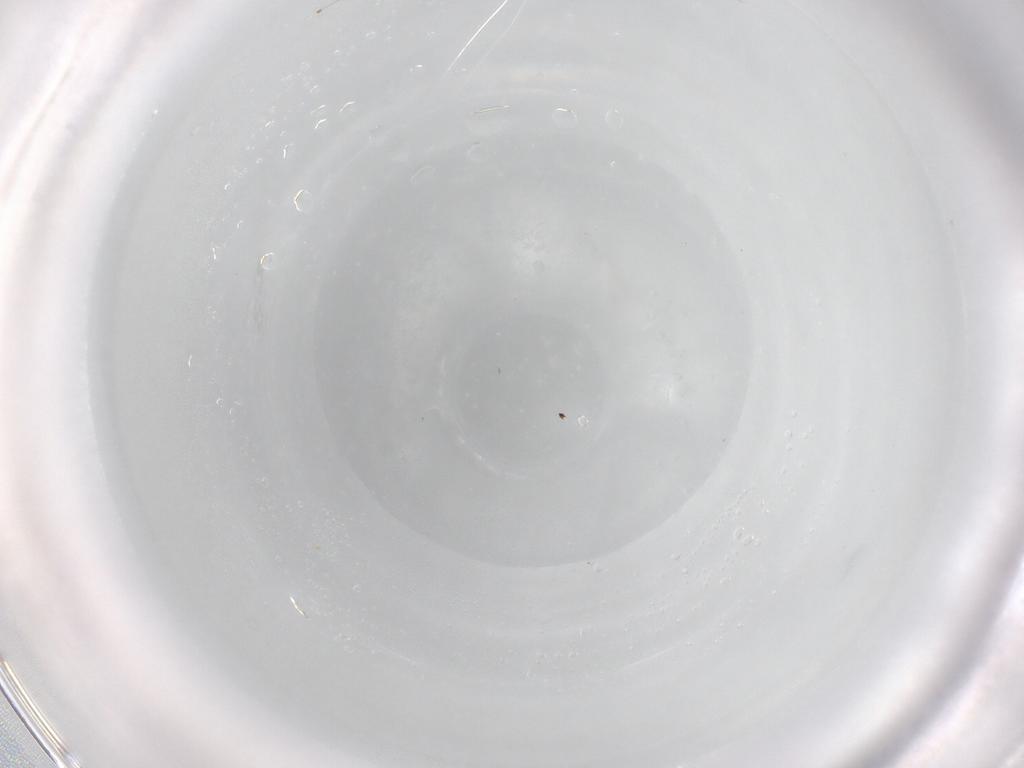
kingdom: Animalia
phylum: Arthropoda
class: Insecta
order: Hymenoptera
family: Mymaridae
